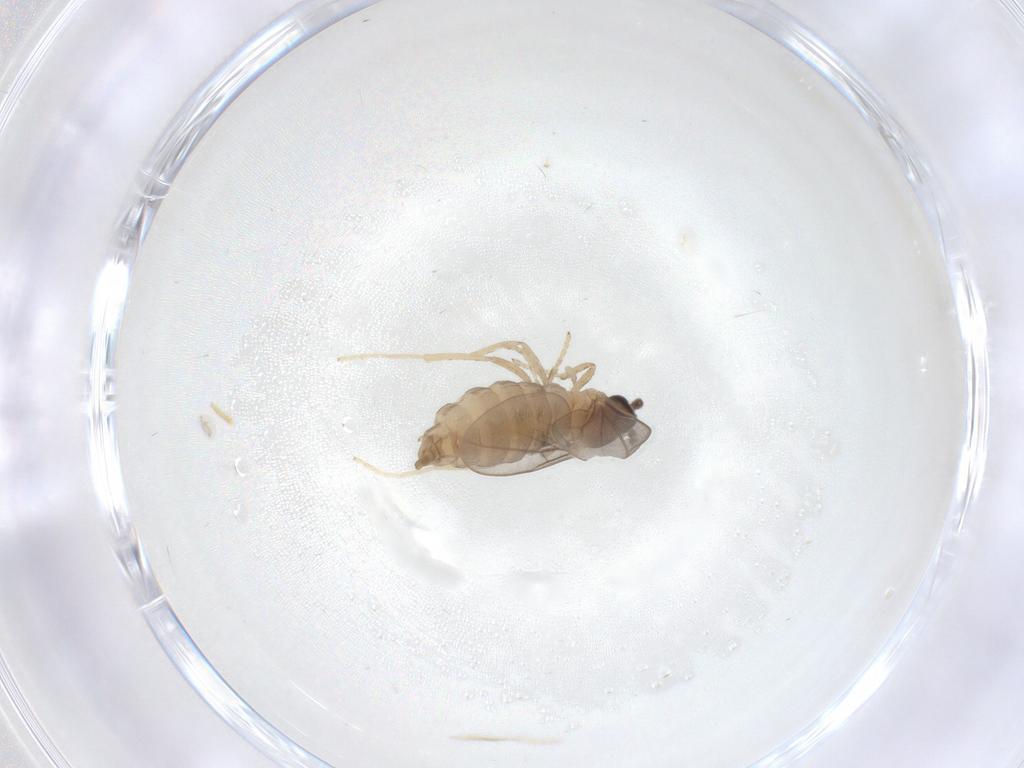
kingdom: Animalia
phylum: Arthropoda
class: Insecta
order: Diptera
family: Cecidomyiidae
